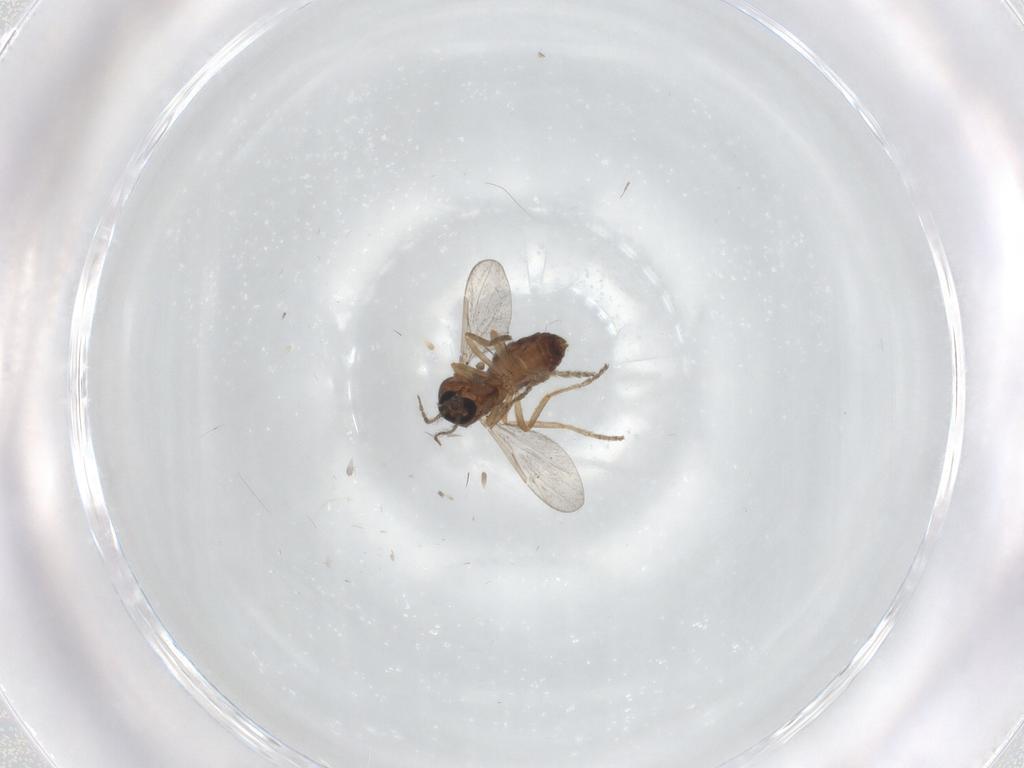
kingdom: Animalia
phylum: Arthropoda
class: Insecta
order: Diptera
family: Ceratopogonidae
